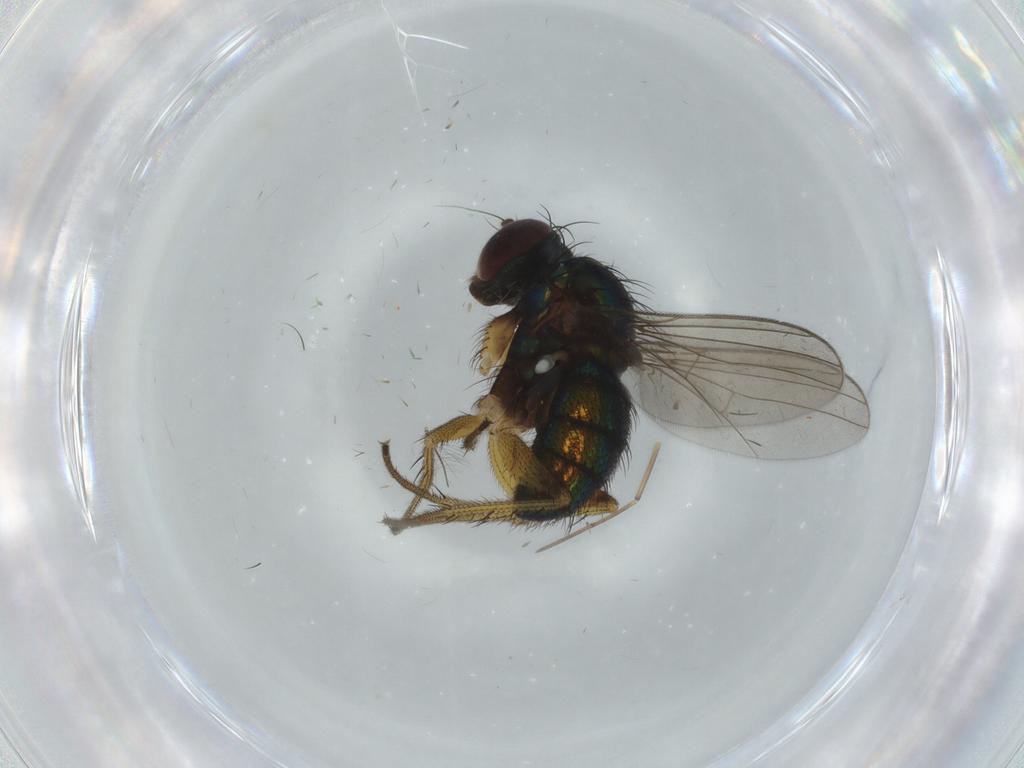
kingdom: Animalia
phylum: Arthropoda
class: Insecta
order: Diptera
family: Dolichopodidae
